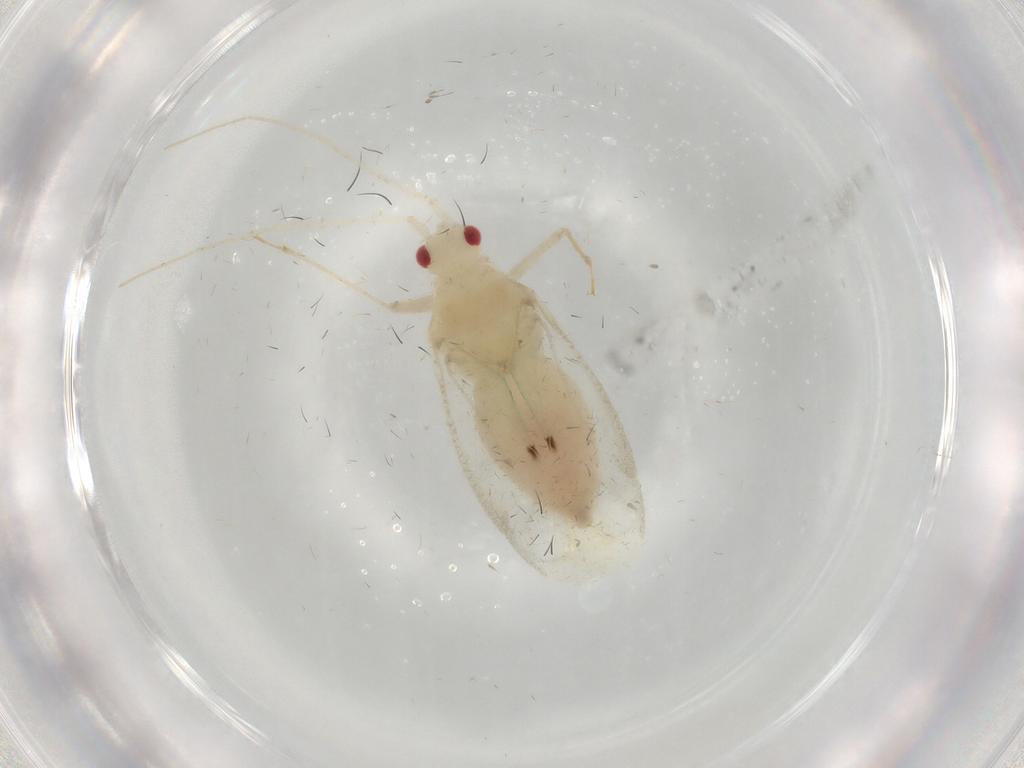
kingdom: Animalia
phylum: Arthropoda
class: Insecta
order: Hemiptera
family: Miridae
